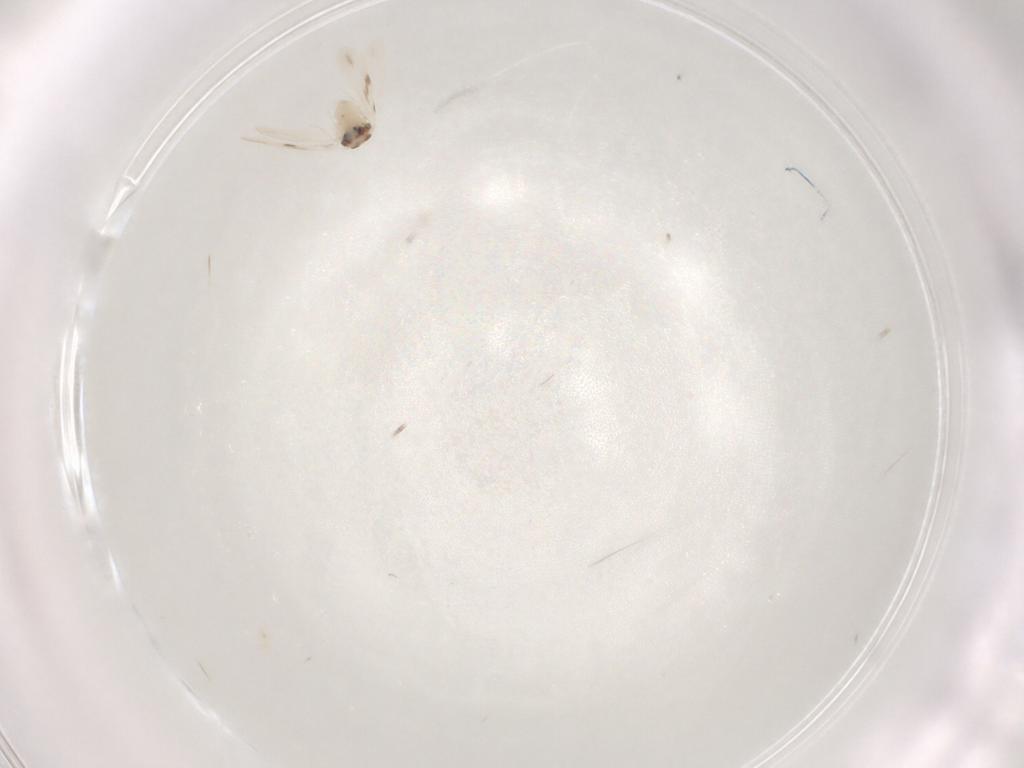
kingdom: Animalia
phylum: Arthropoda
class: Insecta
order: Hemiptera
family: Aleyrodidae
